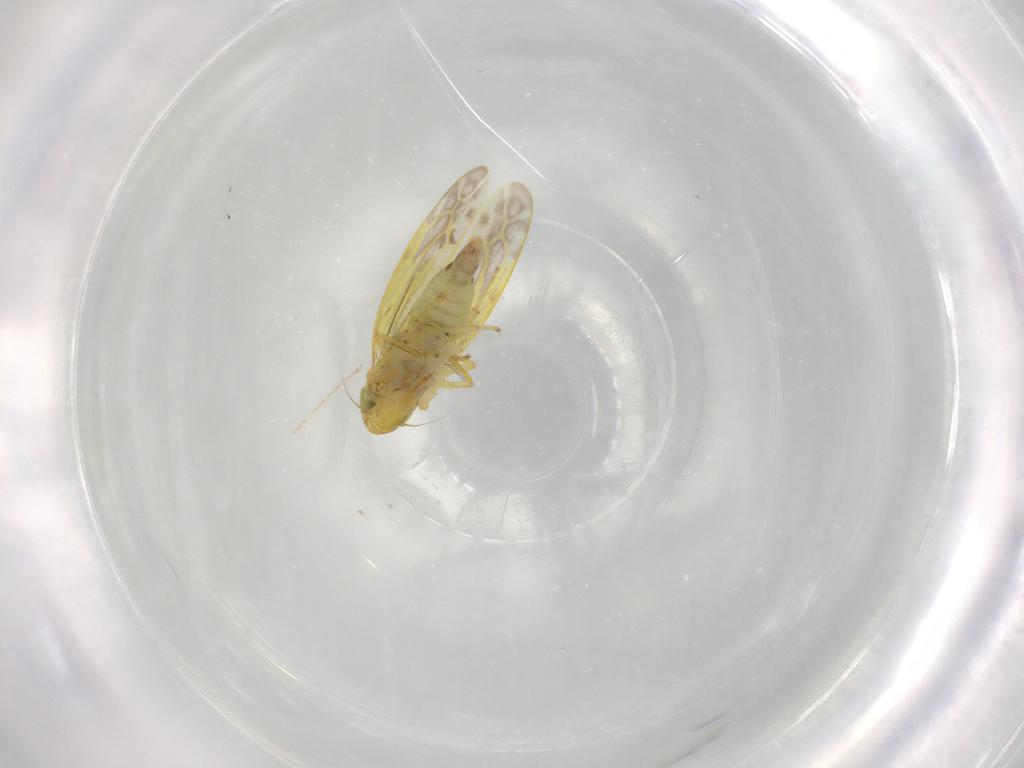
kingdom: Animalia
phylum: Arthropoda
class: Insecta
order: Hemiptera
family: Cicadellidae
